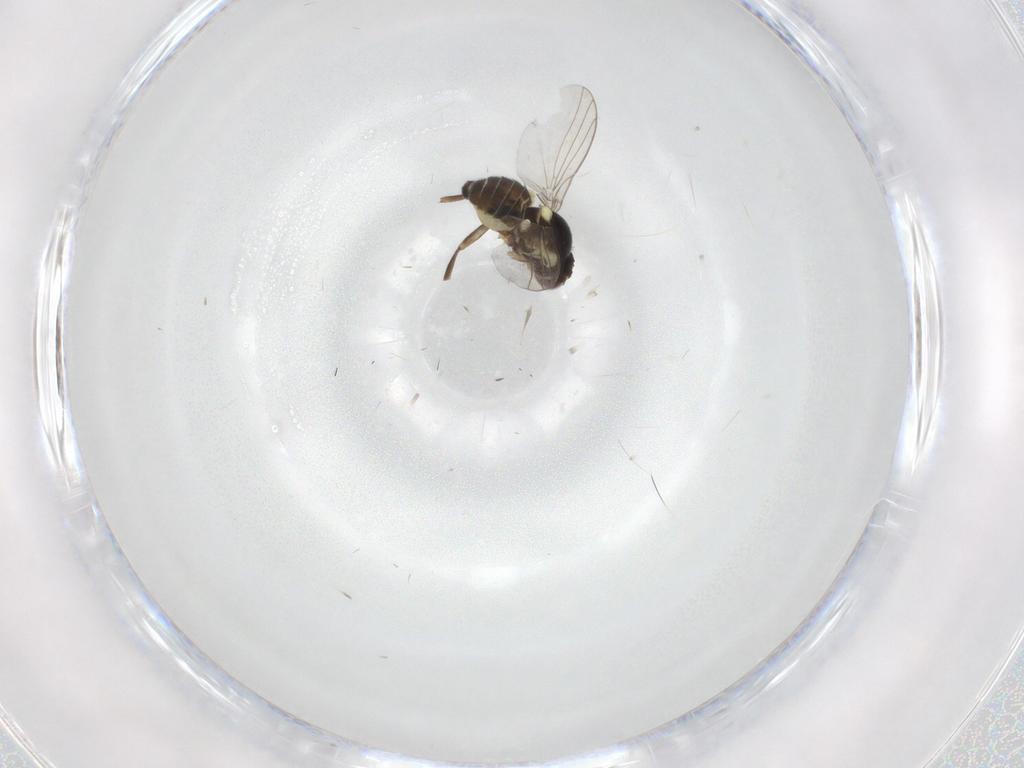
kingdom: Animalia
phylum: Arthropoda
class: Insecta
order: Diptera
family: Agromyzidae
